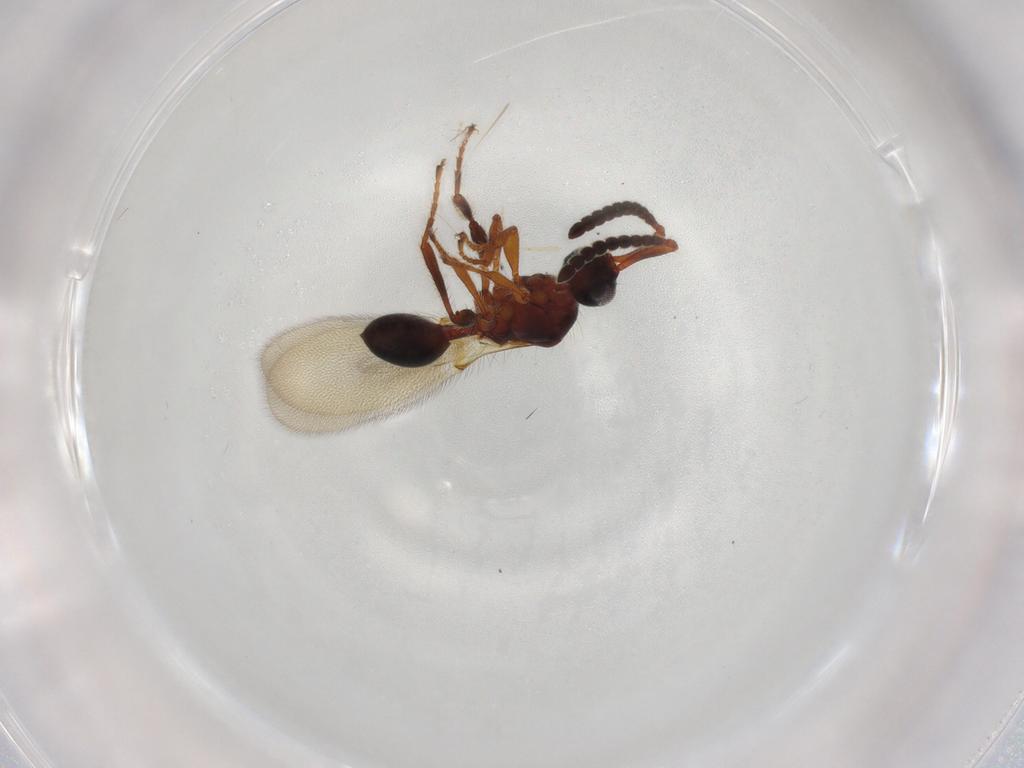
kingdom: Animalia
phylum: Arthropoda
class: Insecta
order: Hymenoptera
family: Diapriidae
